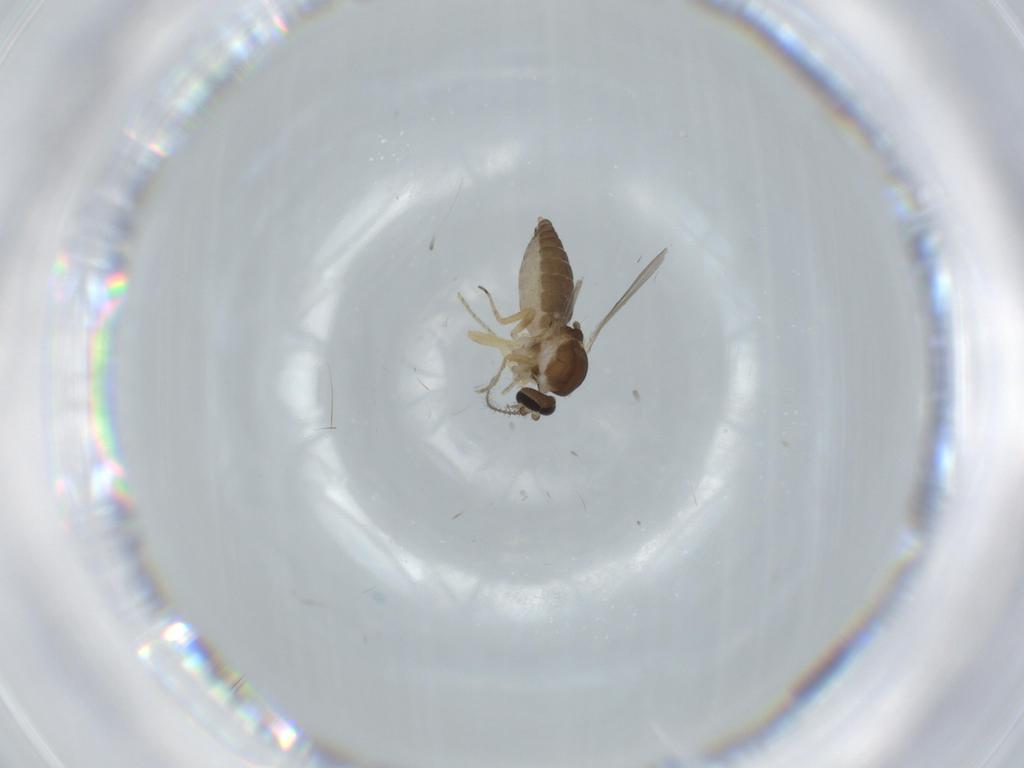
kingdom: Animalia
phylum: Arthropoda
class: Insecta
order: Diptera
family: Ceratopogonidae
